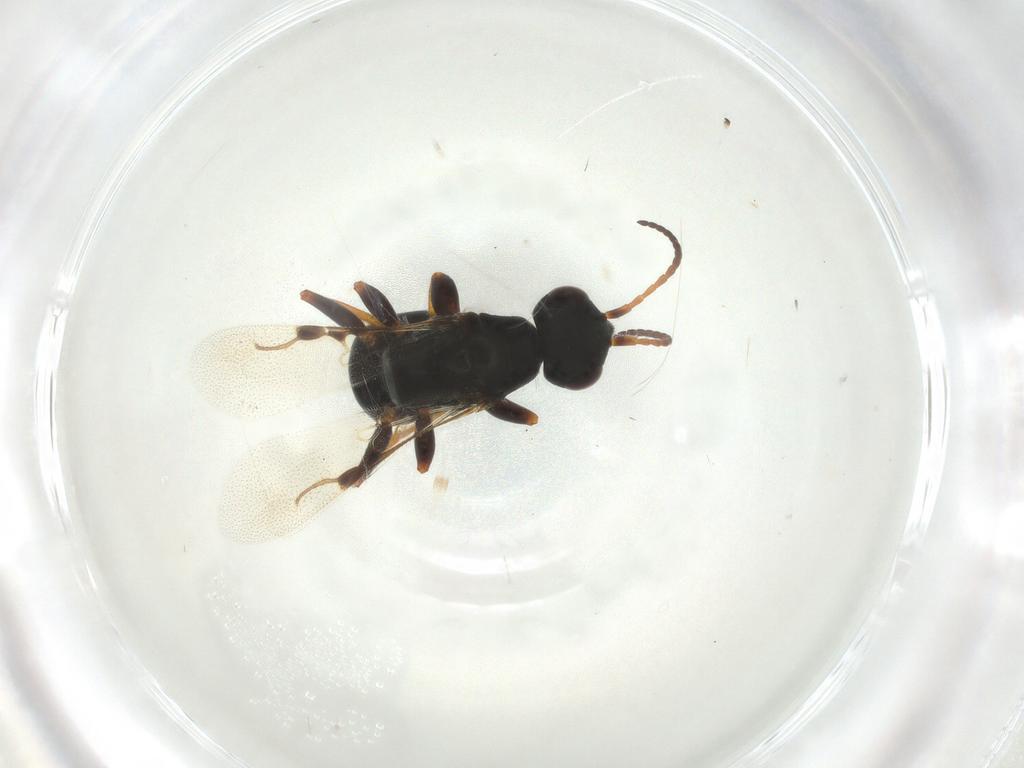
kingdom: Animalia
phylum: Arthropoda
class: Insecta
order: Hymenoptera
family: Bethylidae
